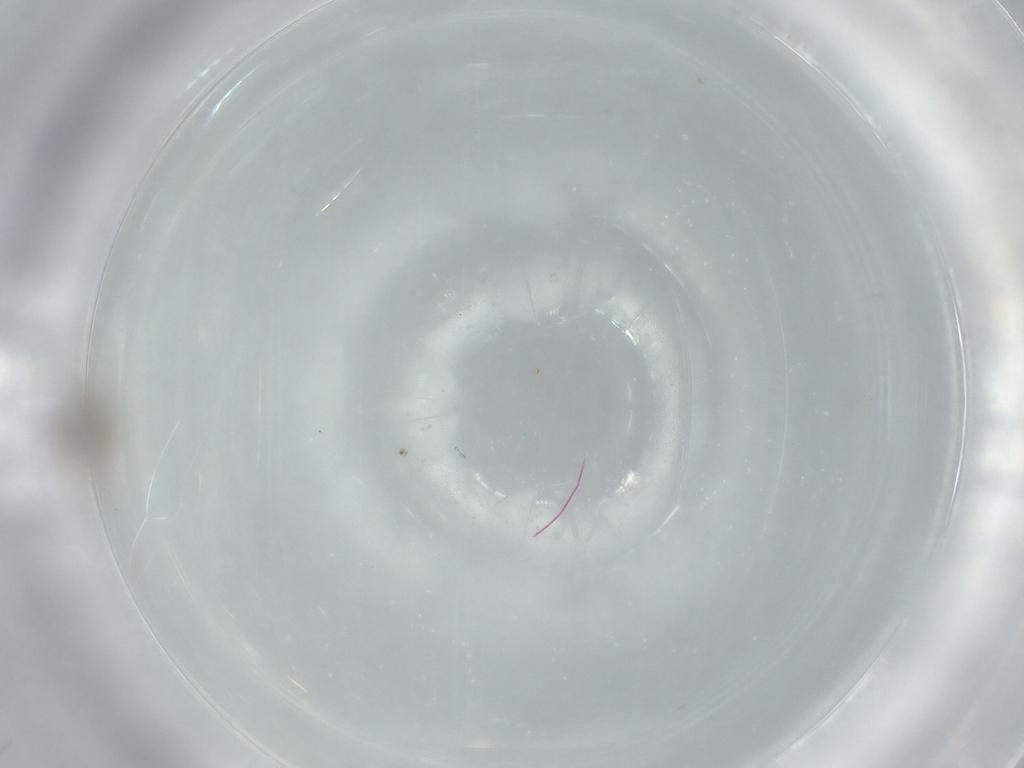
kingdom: Animalia
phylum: Arthropoda
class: Insecta
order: Hemiptera
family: Aleyrodidae
